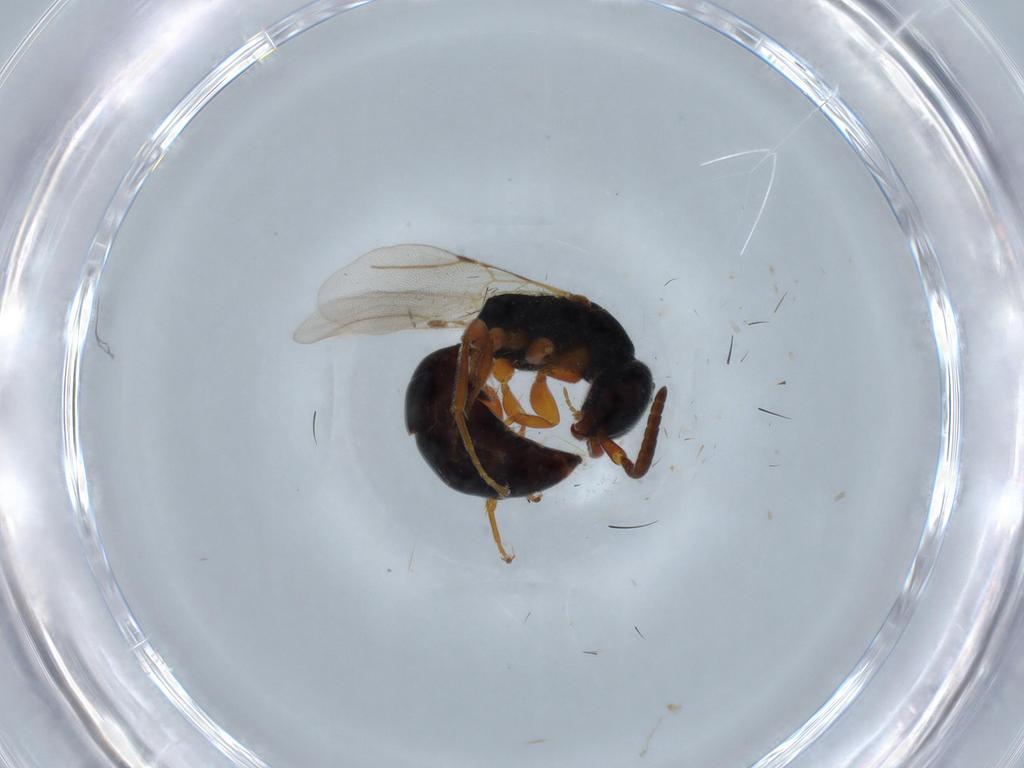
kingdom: Animalia
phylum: Arthropoda
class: Insecta
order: Hymenoptera
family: Bethylidae
